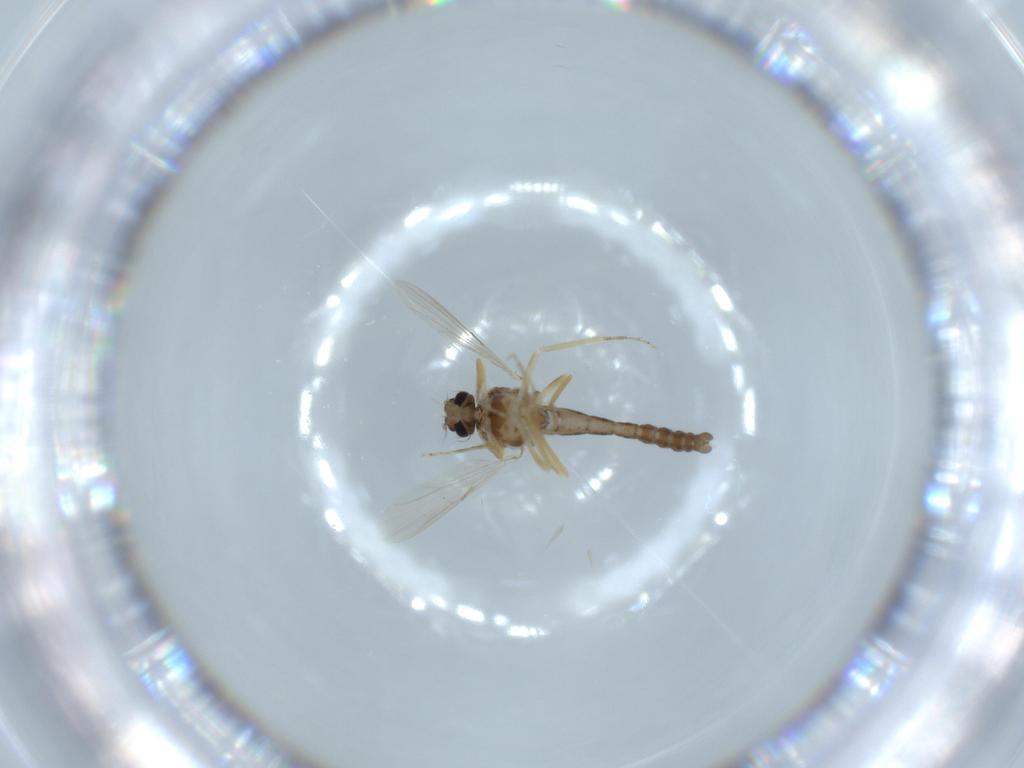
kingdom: Animalia
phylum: Arthropoda
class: Insecta
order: Diptera
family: Ceratopogonidae
